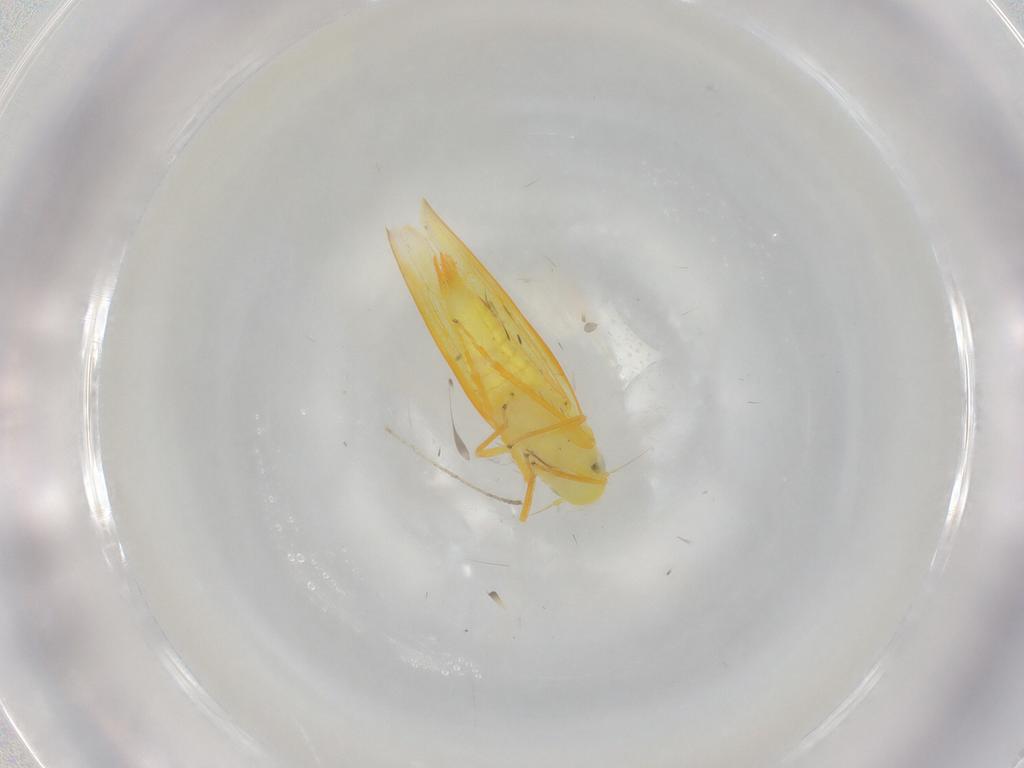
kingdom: Animalia
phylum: Arthropoda
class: Insecta
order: Hemiptera
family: Cicadellidae
